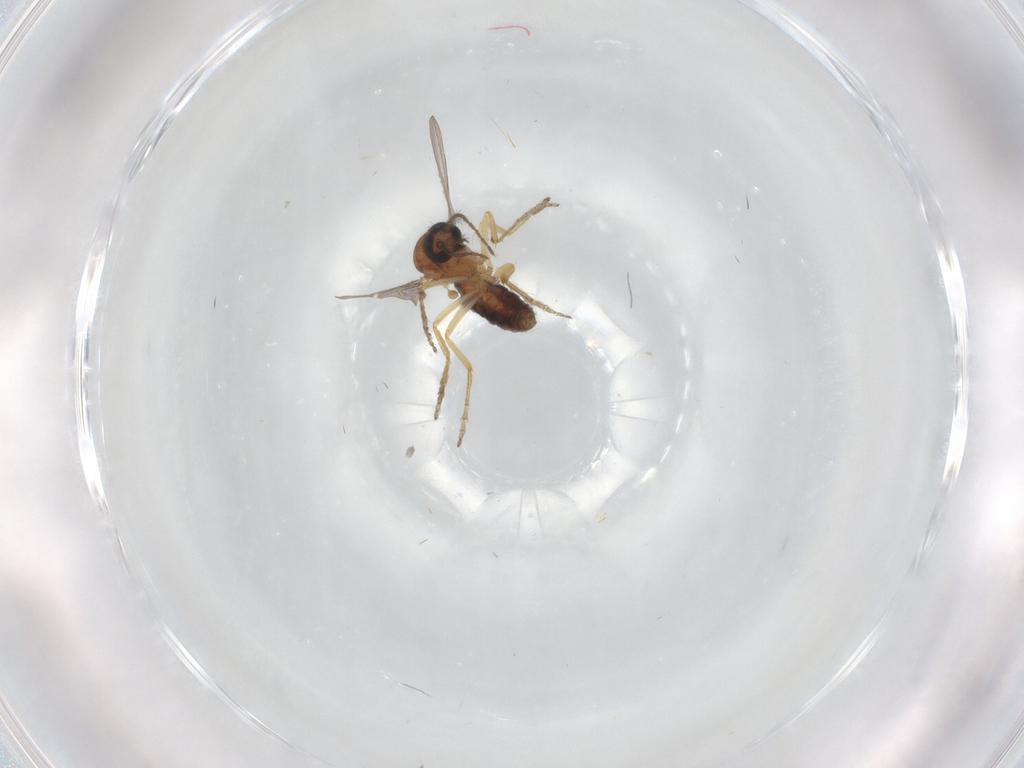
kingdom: Animalia
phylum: Arthropoda
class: Insecta
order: Diptera
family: Ceratopogonidae
